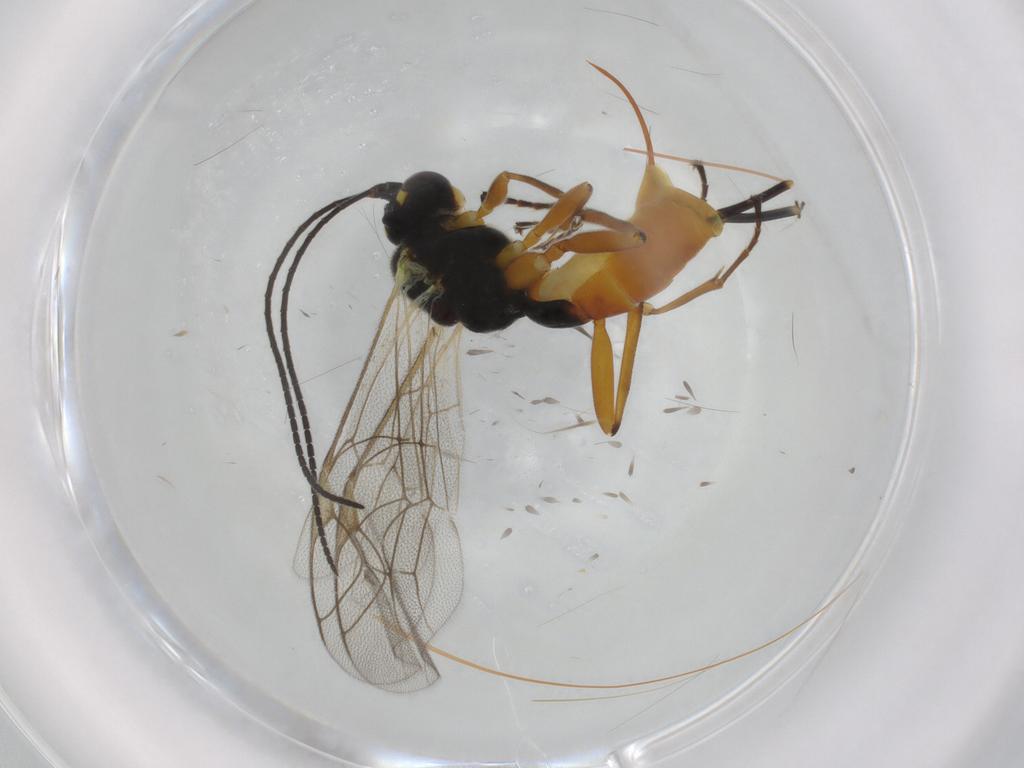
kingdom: Animalia
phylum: Arthropoda
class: Insecta
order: Hymenoptera
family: Ichneumonidae
